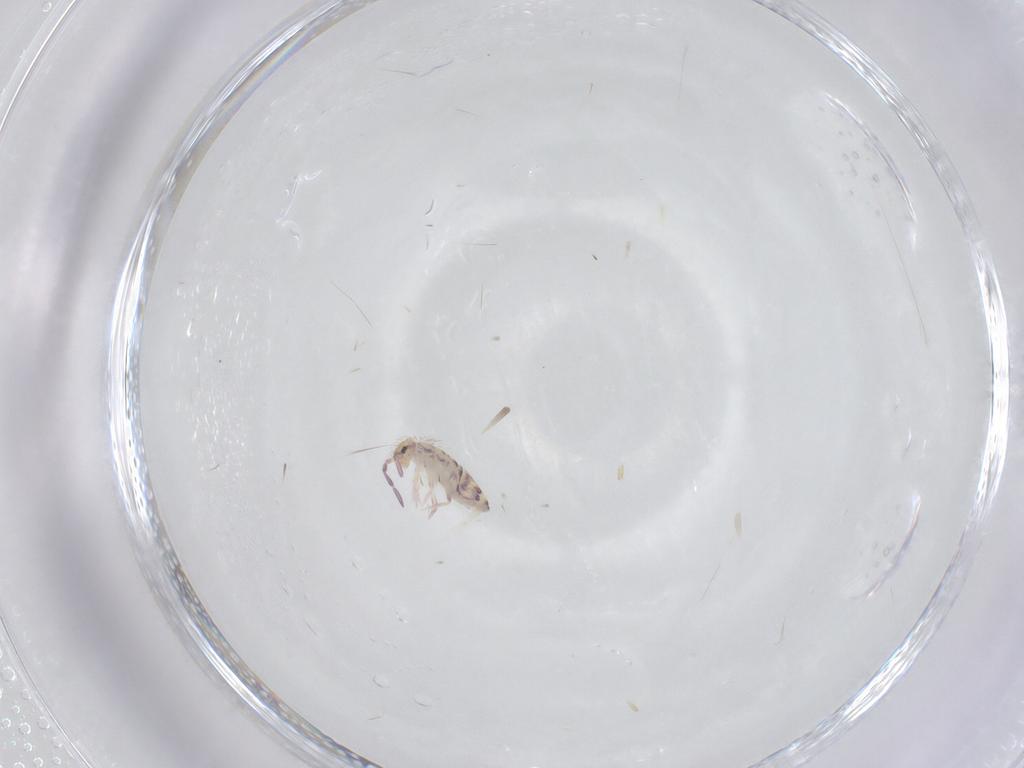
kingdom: Animalia
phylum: Arthropoda
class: Collembola
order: Entomobryomorpha
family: Entomobryidae
